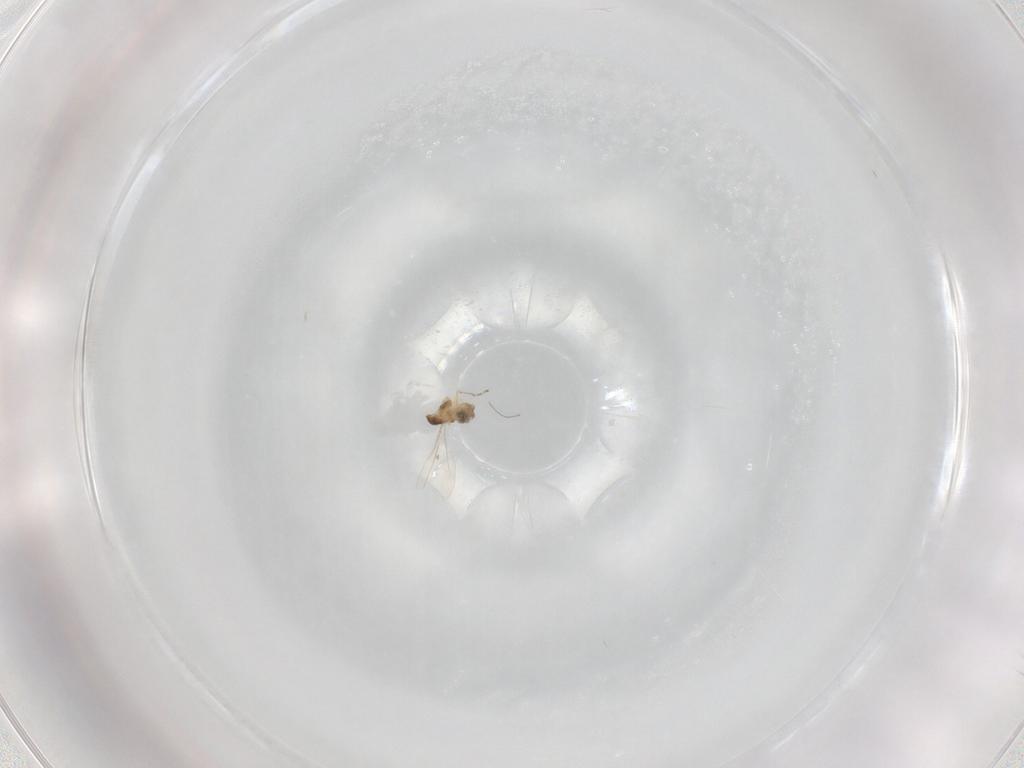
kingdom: Animalia
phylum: Arthropoda
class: Insecta
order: Diptera
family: Cecidomyiidae
